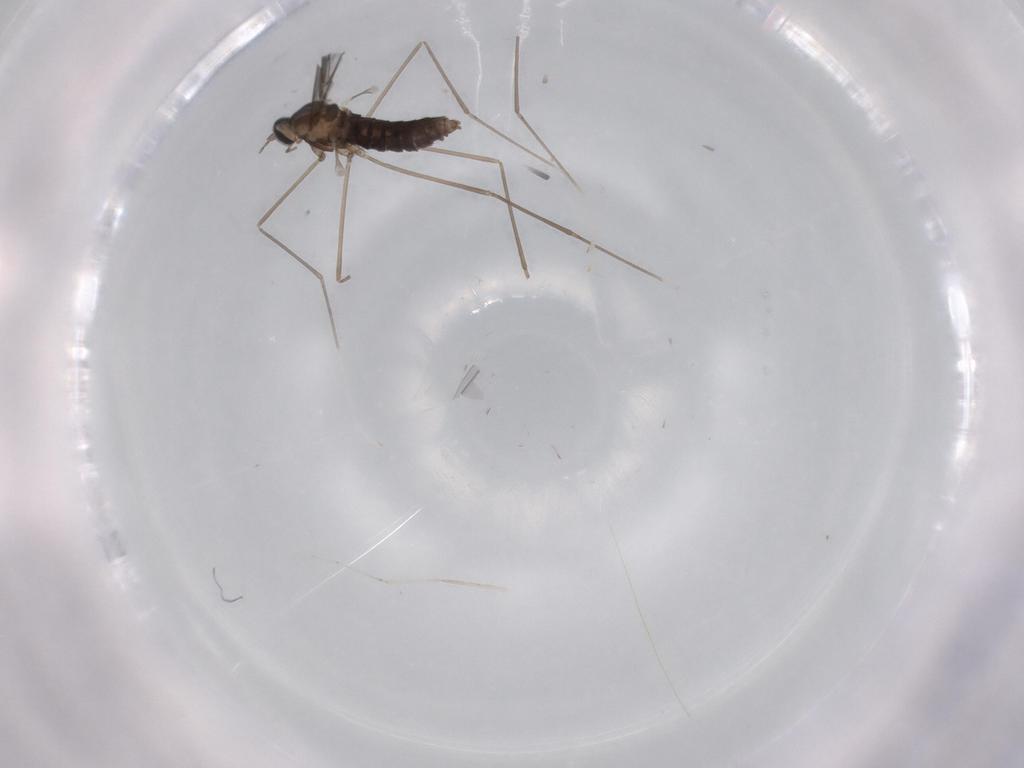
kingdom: Animalia
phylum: Arthropoda
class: Insecta
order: Diptera
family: Cecidomyiidae
